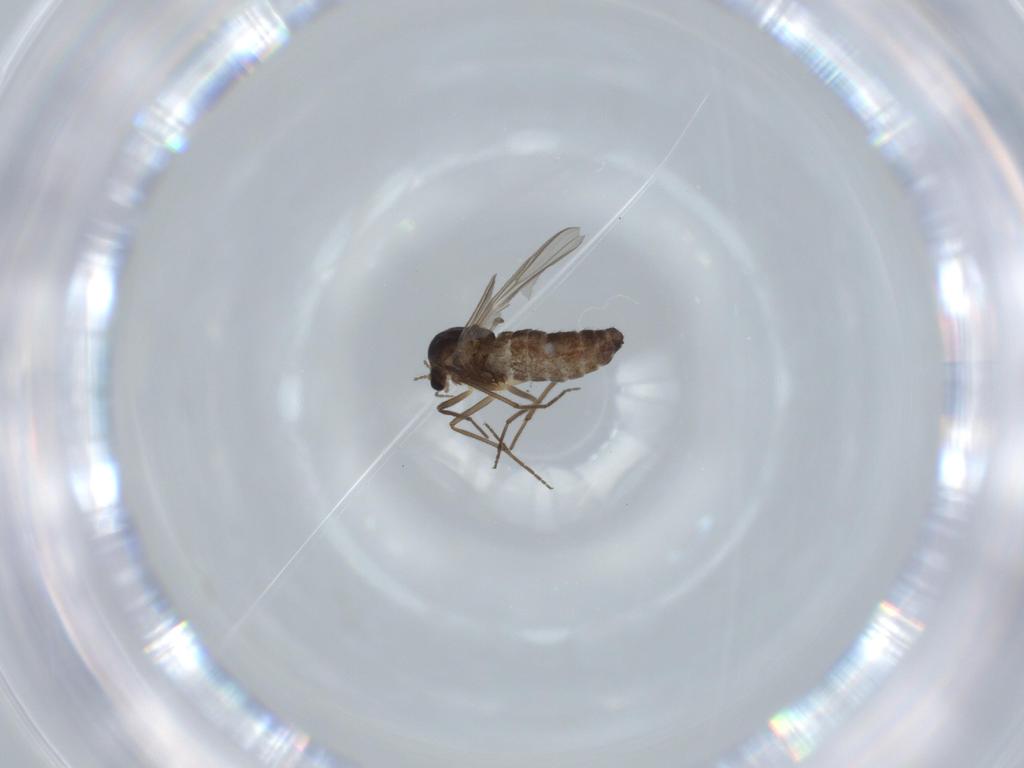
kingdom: Animalia
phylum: Arthropoda
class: Insecta
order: Diptera
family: Chironomidae
